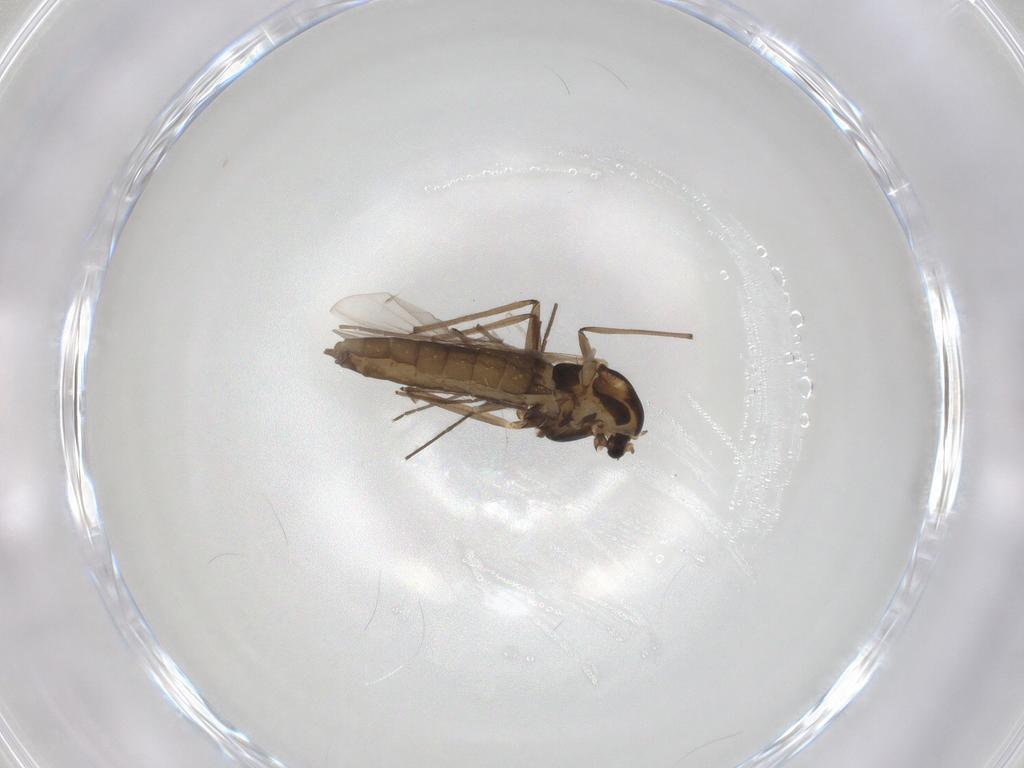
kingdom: Animalia
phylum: Arthropoda
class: Insecta
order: Diptera
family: Chironomidae
